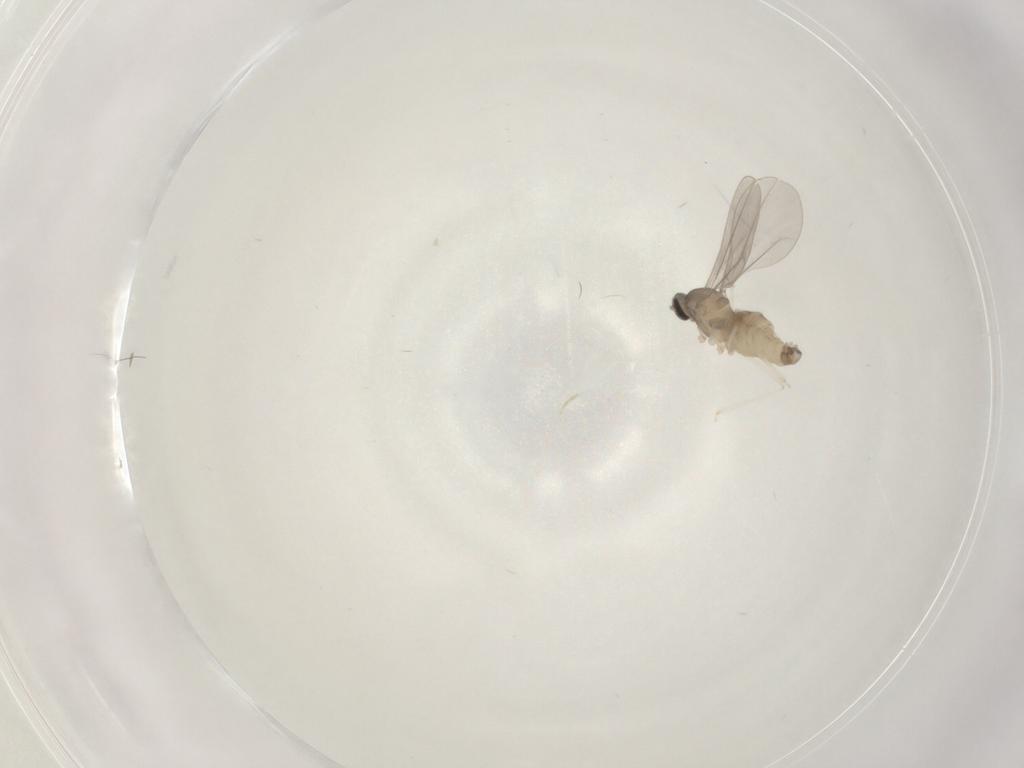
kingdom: Animalia
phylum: Arthropoda
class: Insecta
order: Diptera
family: Cecidomyiidae
